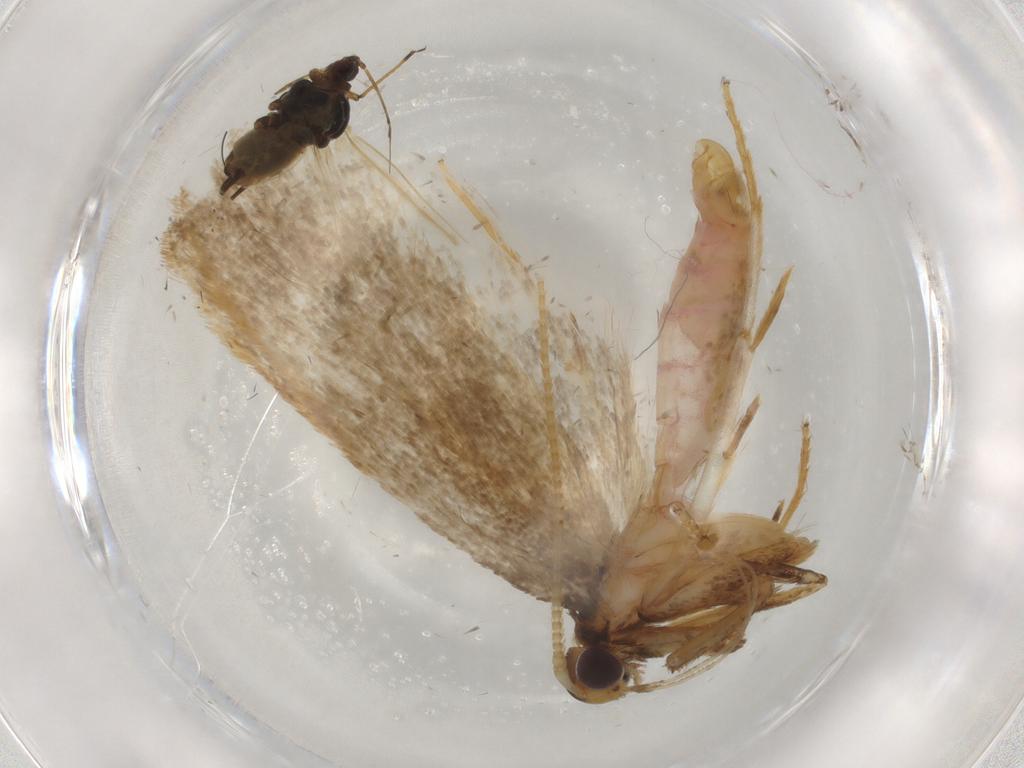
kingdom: Animalia
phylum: Arthropoda
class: Insecta
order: Lepidoptera
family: Lecithoceridae
